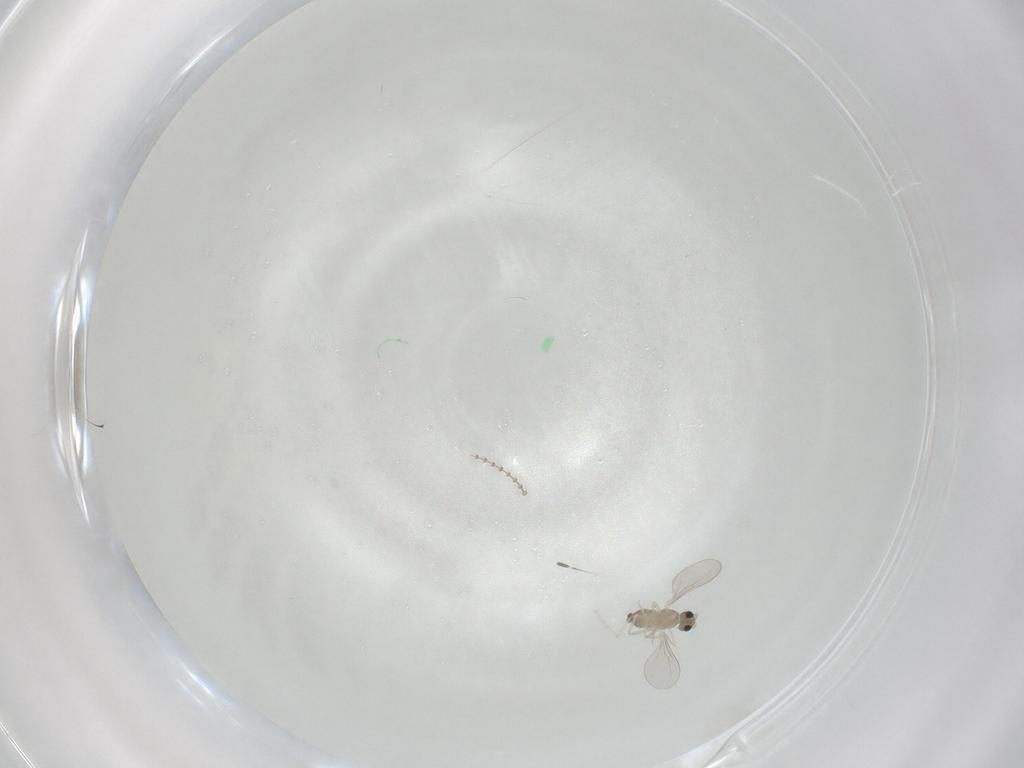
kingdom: Animalia
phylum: Arthropoda
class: Insecta
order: Diptera
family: Cecidomyiidae
